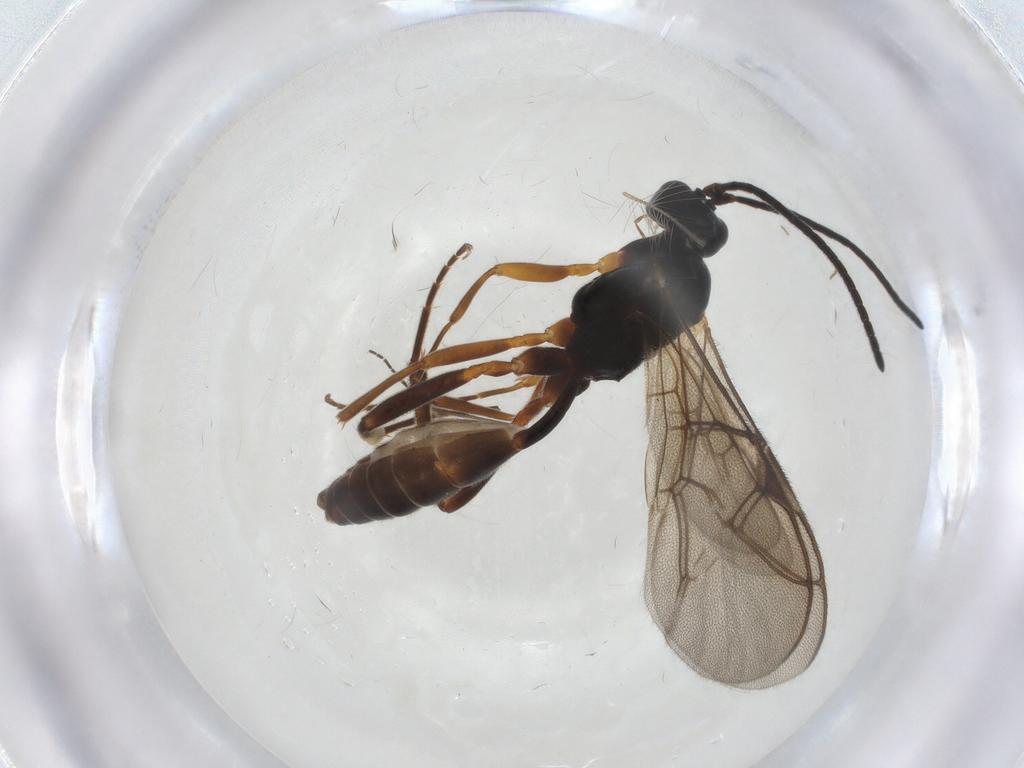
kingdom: Animalia
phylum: Arthropoda
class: Insecta
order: Hymenoptera
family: Ichneumonidae
